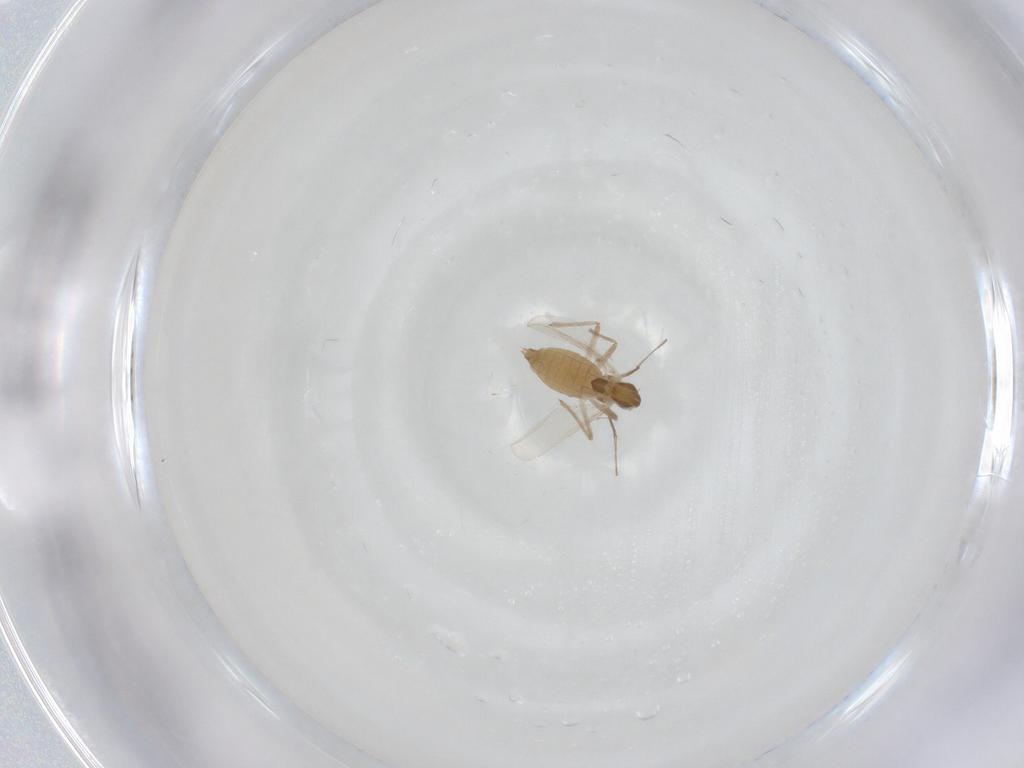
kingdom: Animalia
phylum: Arthropoda
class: Insecta
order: Diptera
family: Chironomidae
